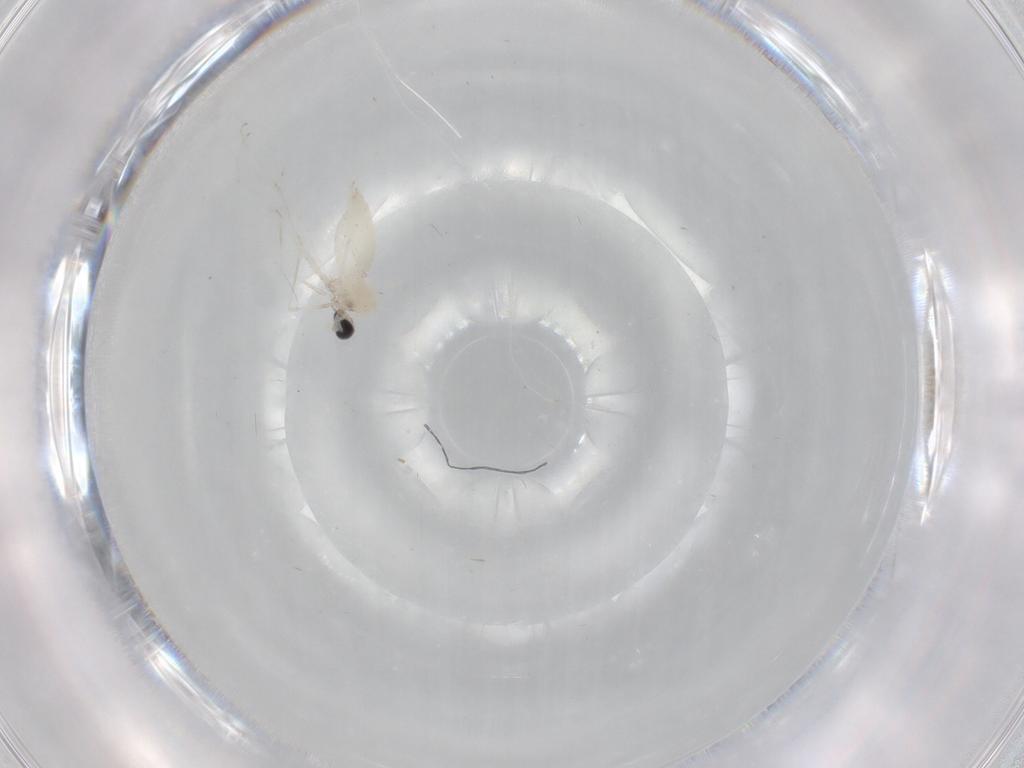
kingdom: Animalia
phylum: Arthropoda
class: Insecta
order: Diptera
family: Cecidomyiidae
